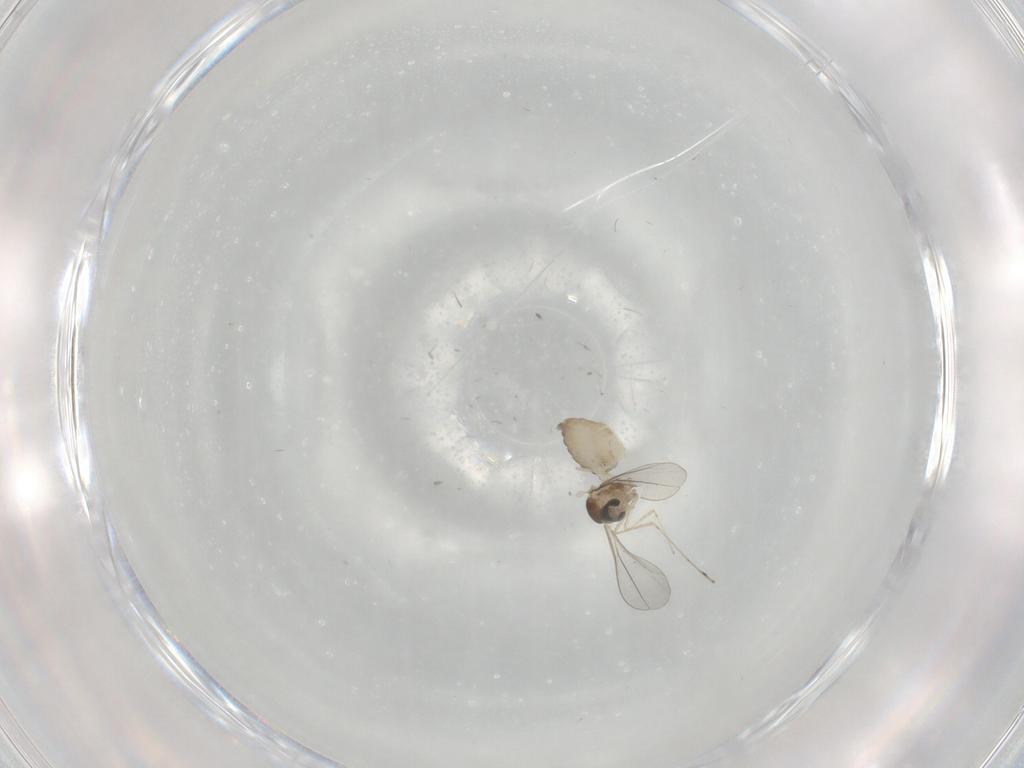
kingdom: Animalia
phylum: Arthropoda
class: Insecta
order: Diptera
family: Cecidomyiidae
